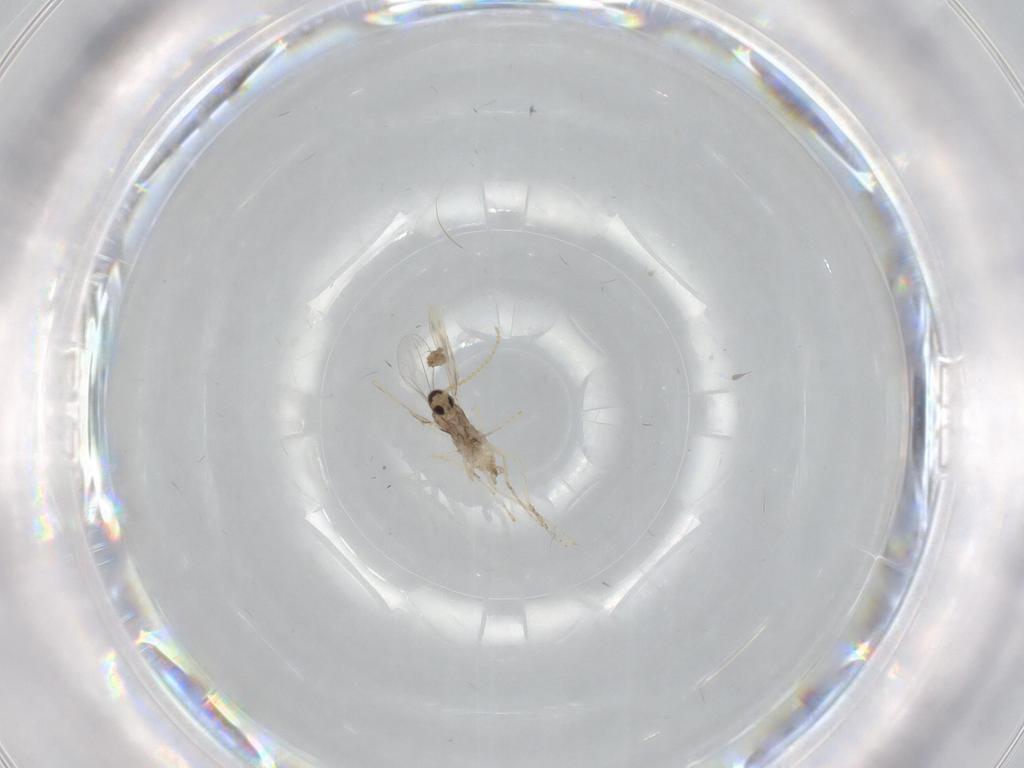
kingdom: Animalia
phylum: Arthropoda
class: Insecta
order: Diptera
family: Cecidomyiidae
